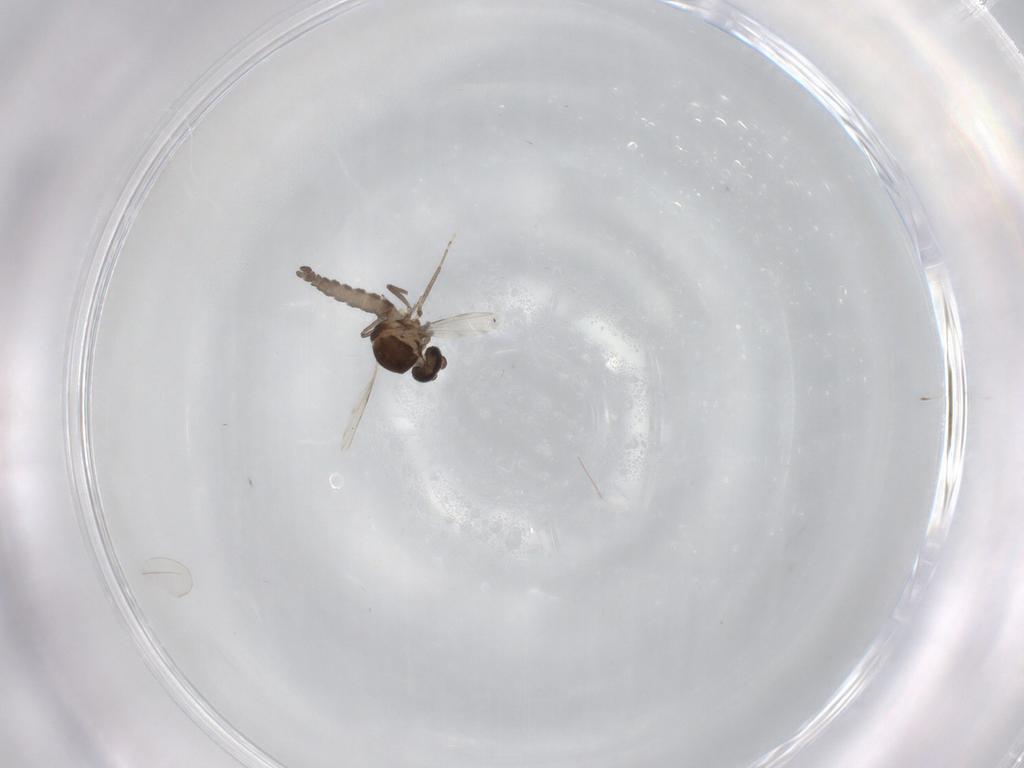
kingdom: Animalia
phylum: Arthropoda
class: Insecta
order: Diptera
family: Ceratopogonidae
